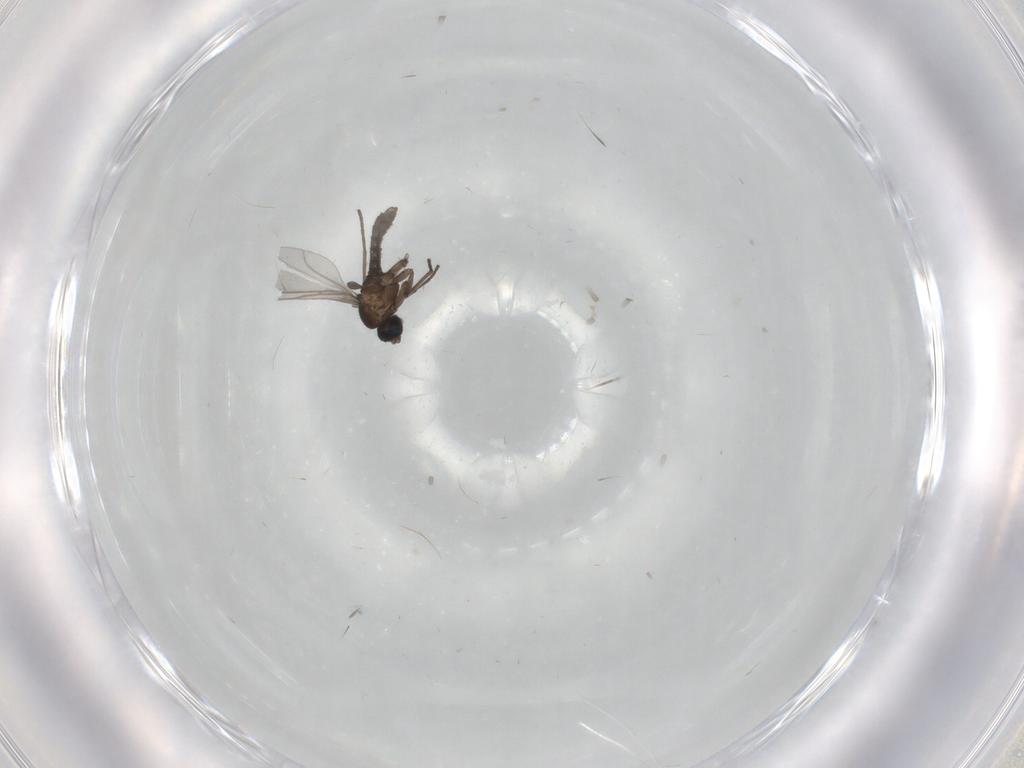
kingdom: Animalia
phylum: Arthropoda
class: Insecta
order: Diptera
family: Sciaridae
